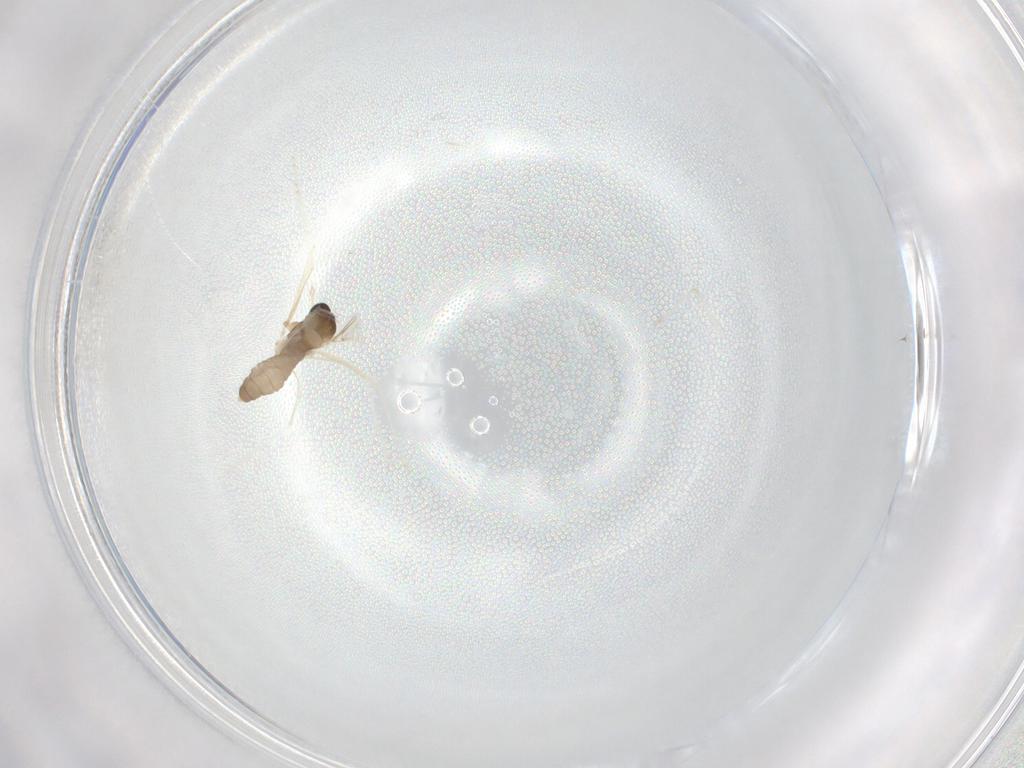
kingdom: Animalia
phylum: Arthropoda
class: Insecta
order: Diptera
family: Cecidomyiidae
